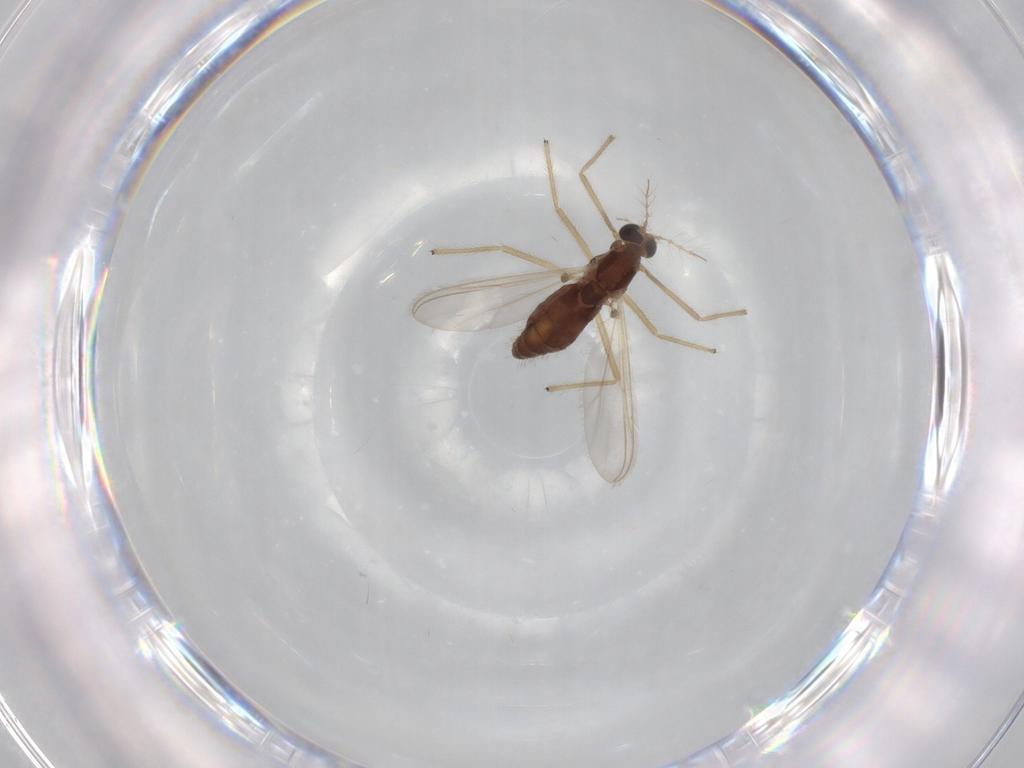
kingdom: Animalia
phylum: Arthropoda
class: Insecta
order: Diptera
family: Chironomidae
